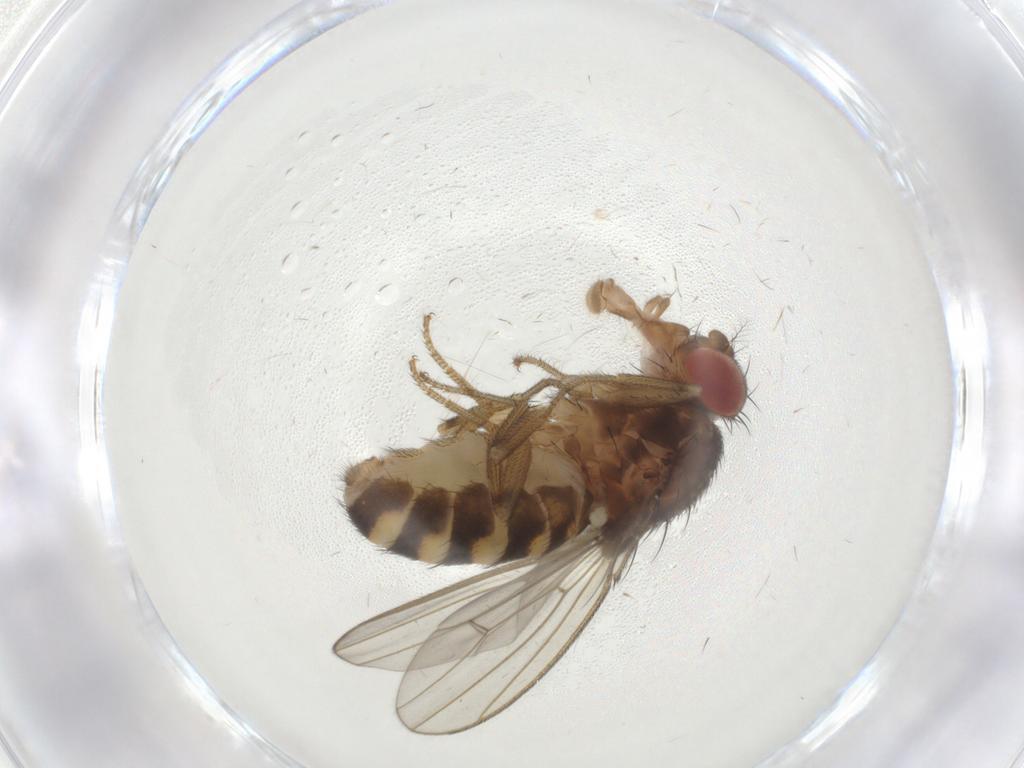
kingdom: Animalia
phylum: Arthropoda
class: Insecta
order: Diptera
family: Drosophilidae
